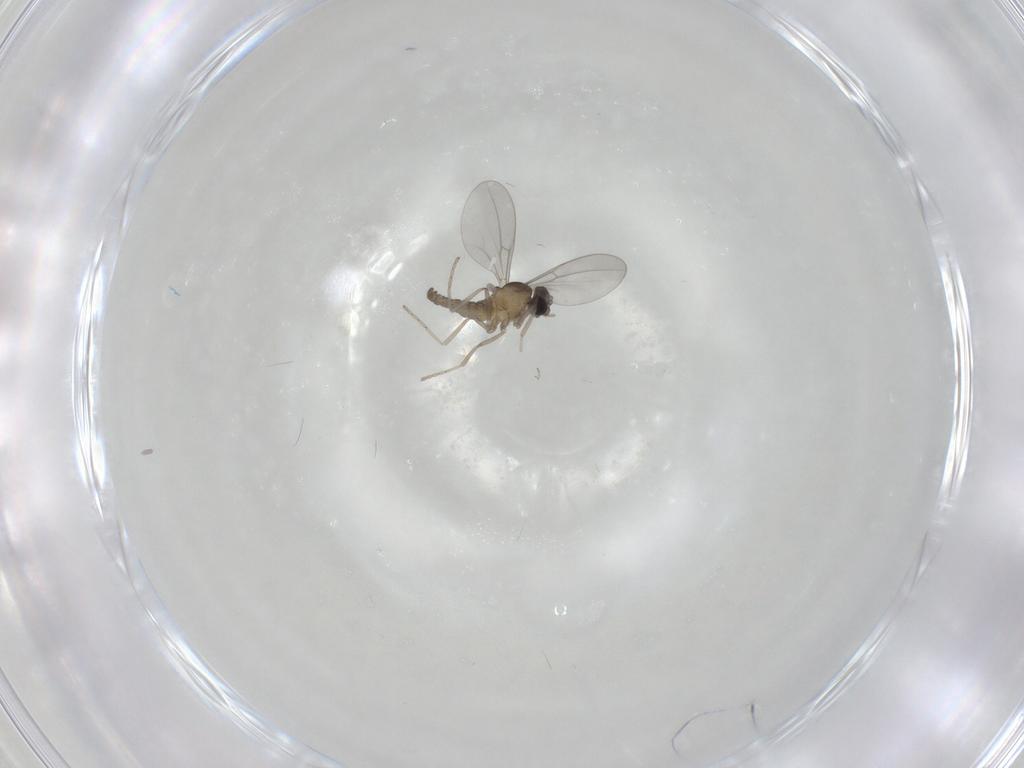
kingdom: Animalia
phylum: Arthropoda
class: Insecta
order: Diptera
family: Cecidomyiidae
